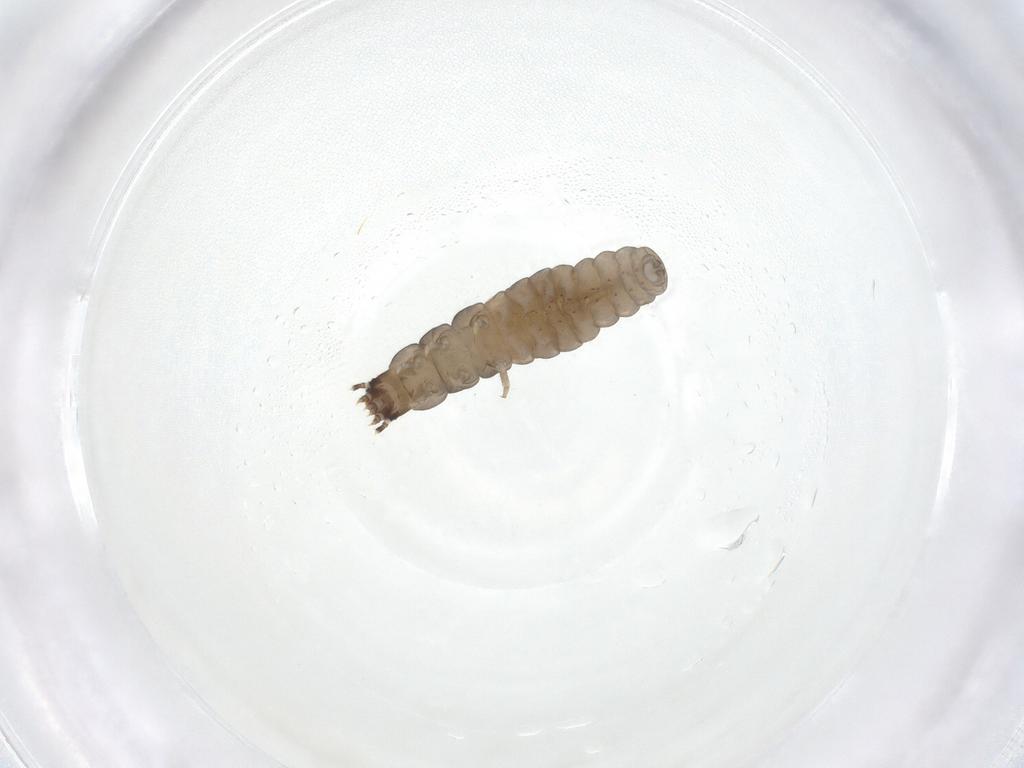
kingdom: Animalia
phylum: Arthropoda
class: Insecta
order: Coleoptera
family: Cantharidae
